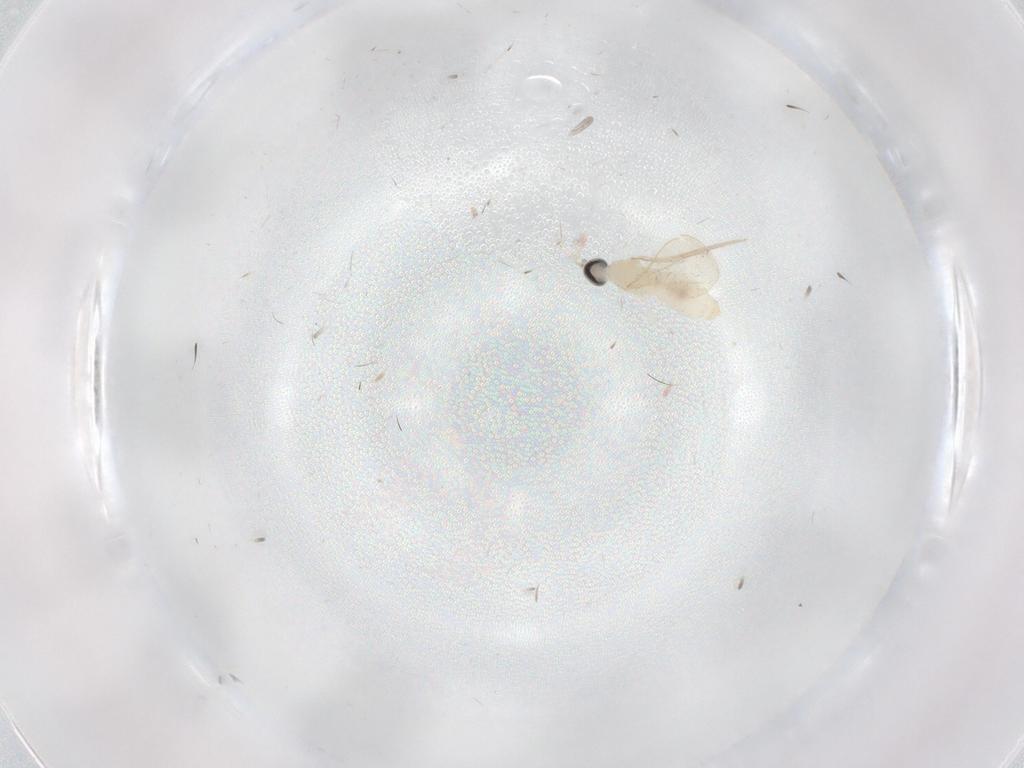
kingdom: Animalia
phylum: Arthropoda
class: Insecta
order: Diptera
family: Cecidomyiidae
